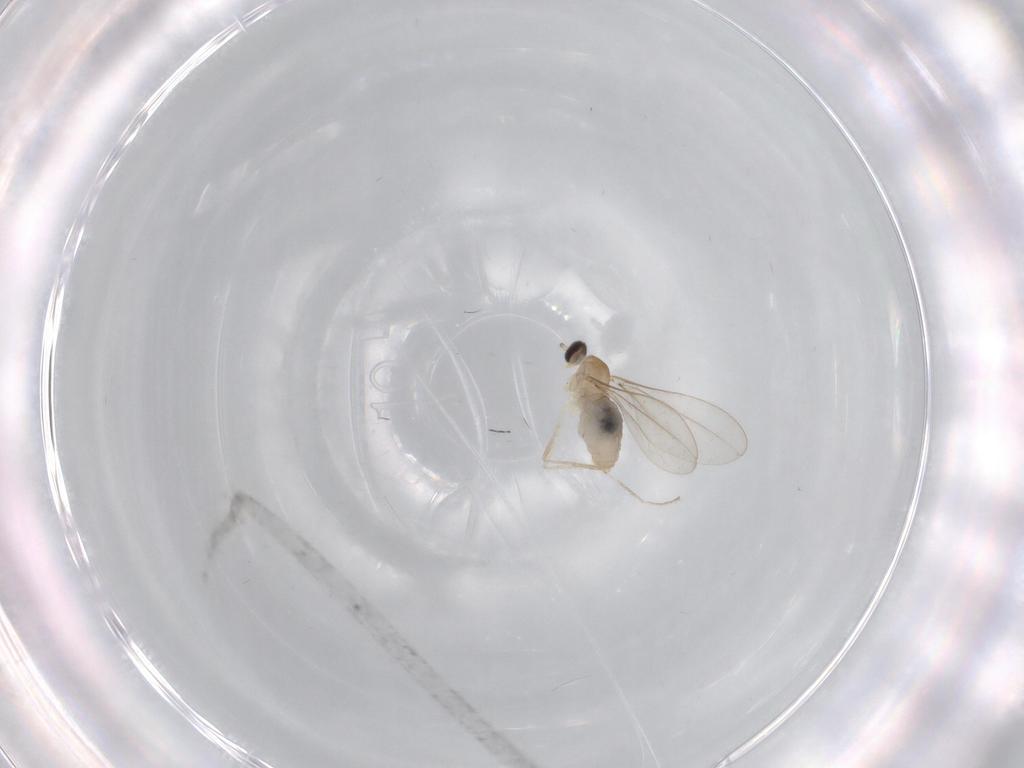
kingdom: Animalia
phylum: Arthropoda
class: Insecta
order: Diptera
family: Cecidomyiidae
